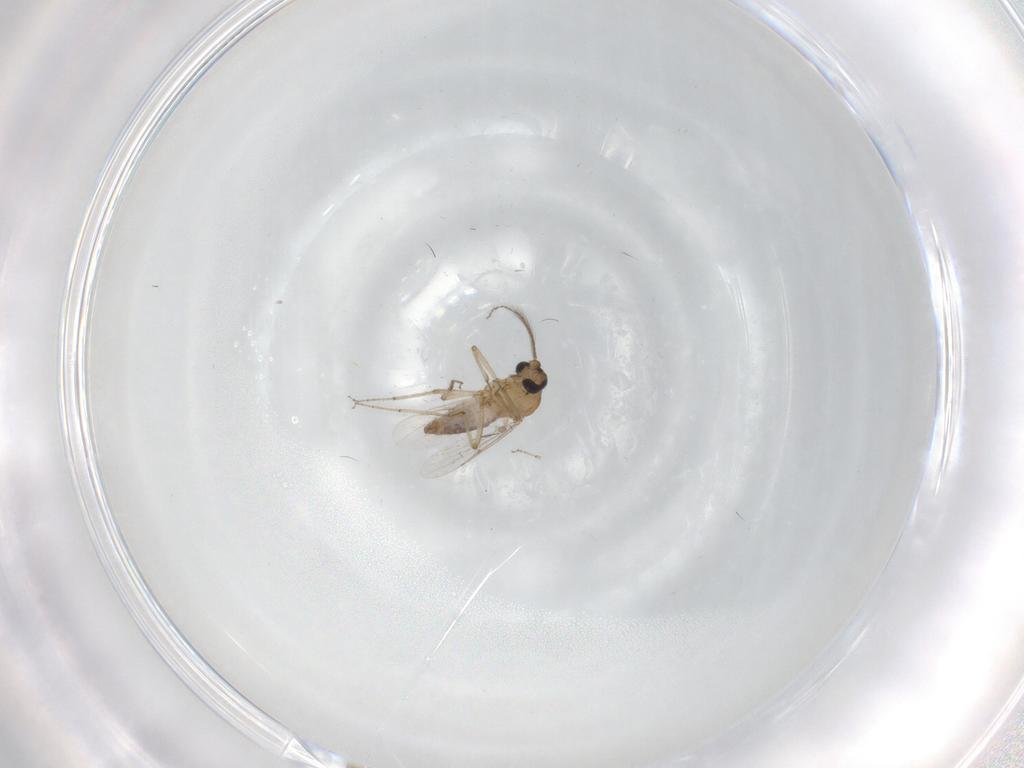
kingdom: Animalia
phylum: Arthropoda
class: Insecta
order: Diptera
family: Ceratopogonidae
